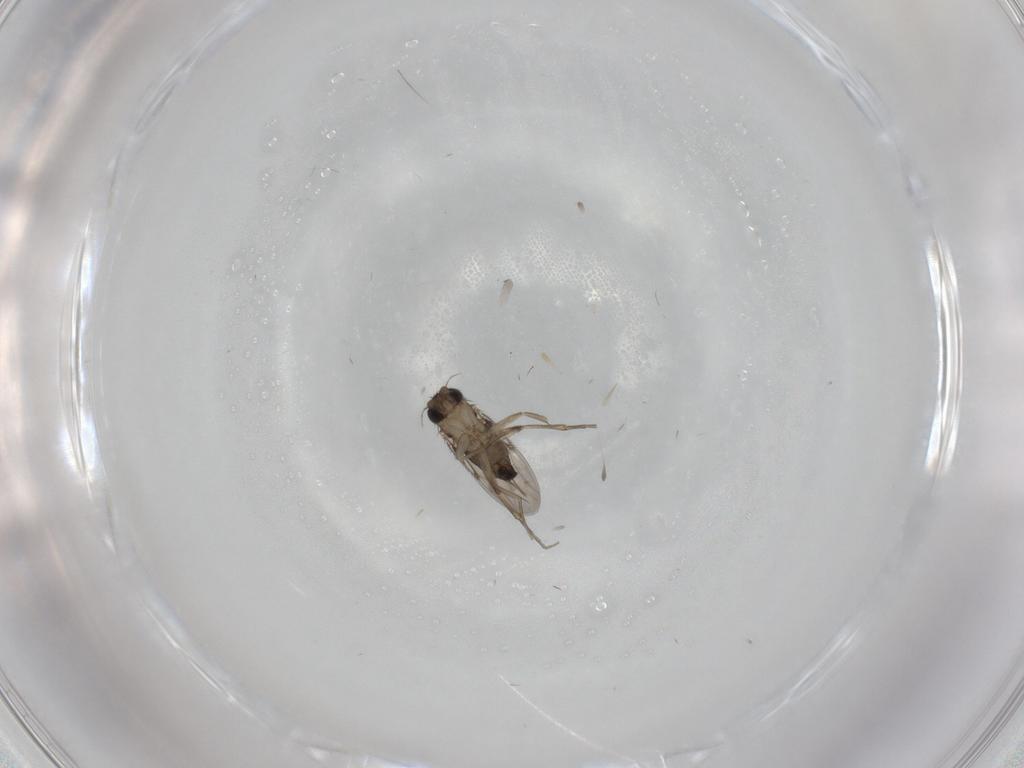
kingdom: Animalia
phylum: Arthropoda
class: Insecta
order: Diptera
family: Phoridae
